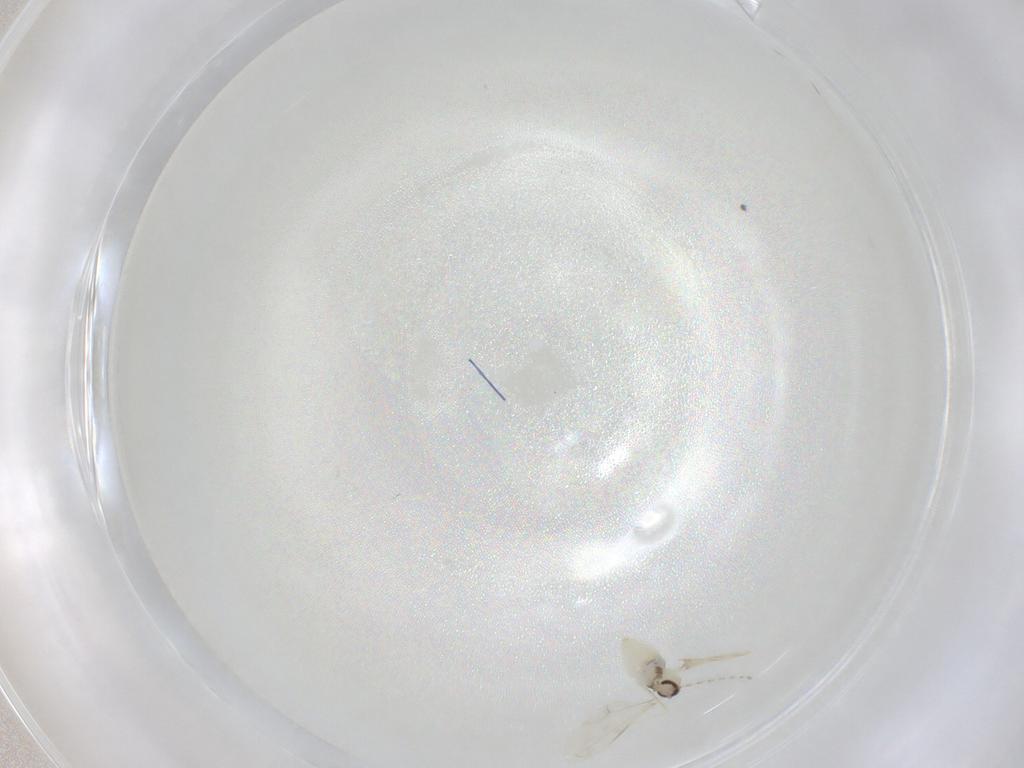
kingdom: Animalia
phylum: Arthropoda
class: Insecta
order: Diptera
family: Cecidomyiidae
